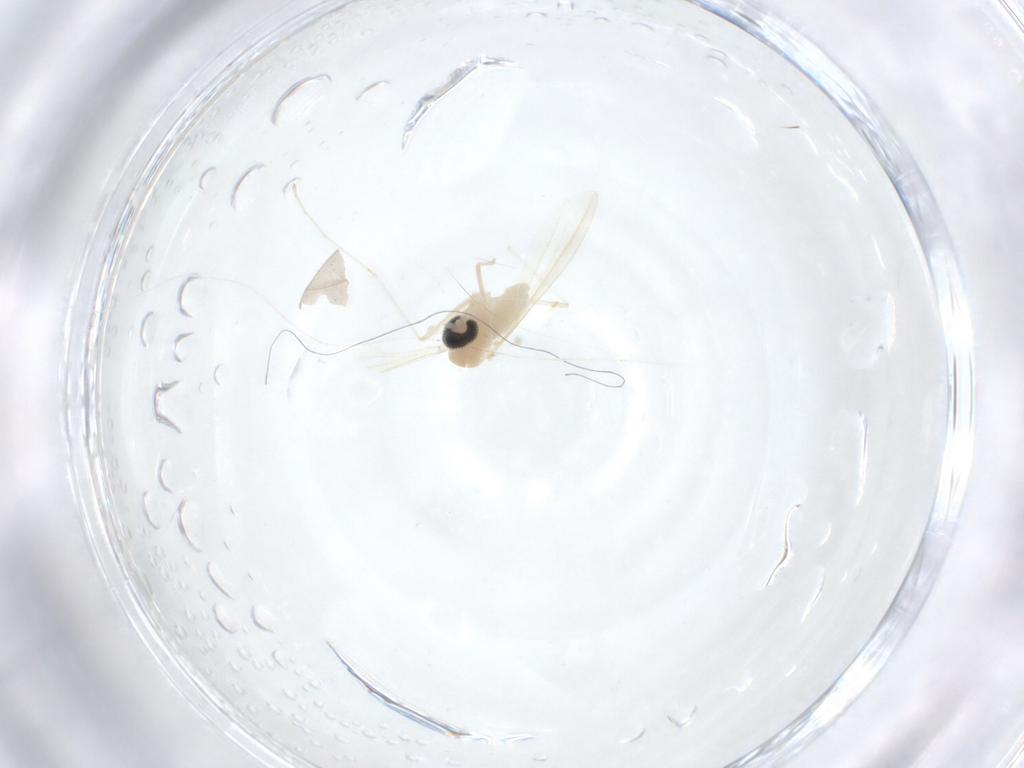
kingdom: Animalia
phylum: Arthropoda
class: Insecta
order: Diptera
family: Cecidomyiidae
